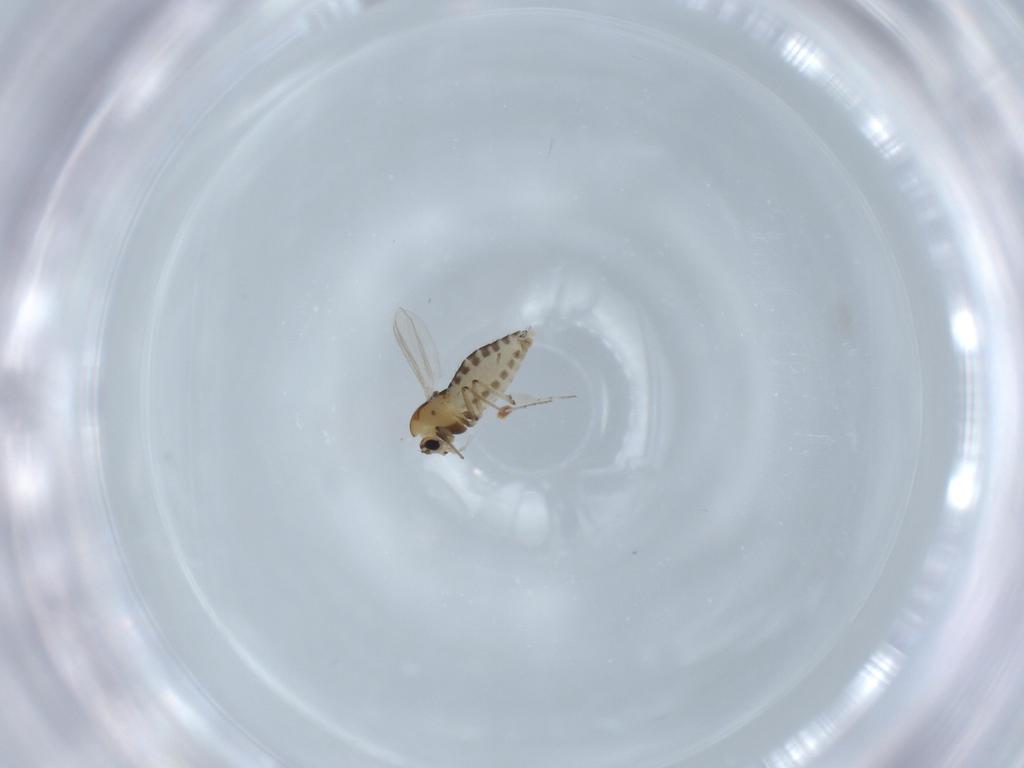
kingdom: Animalia
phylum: Arthropoda
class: Insecta
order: Diptera
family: Chironomidae
